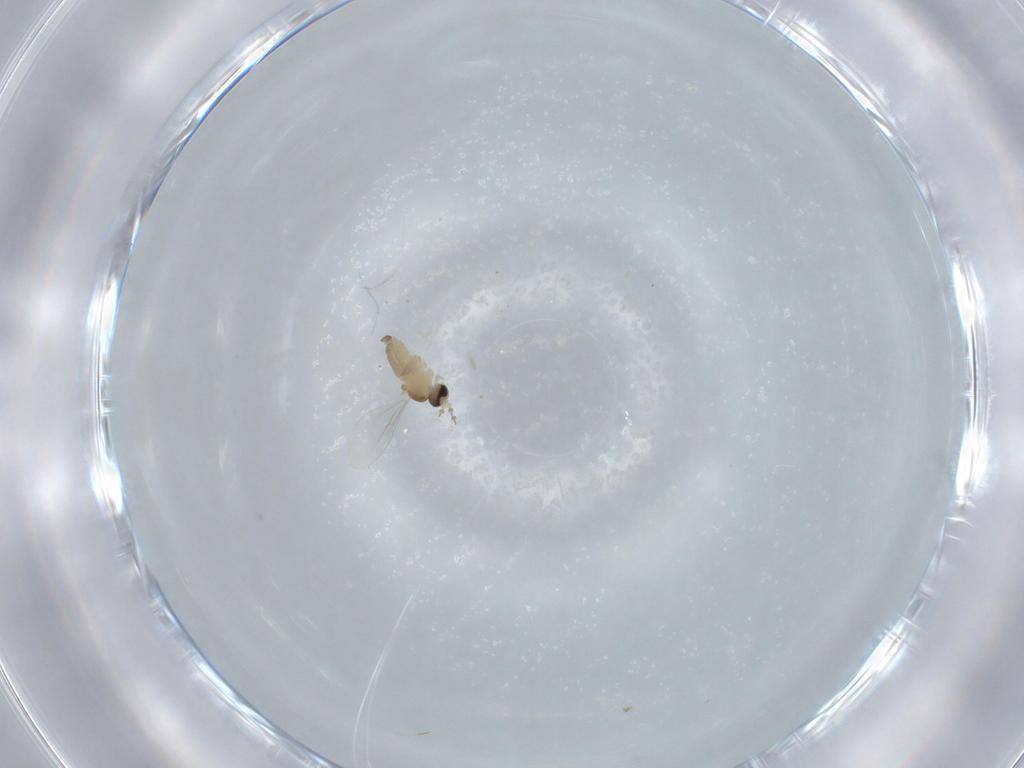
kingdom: Animalia
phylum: Arthropoda
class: Insecta
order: Diptera
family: Cecidomyiidae
